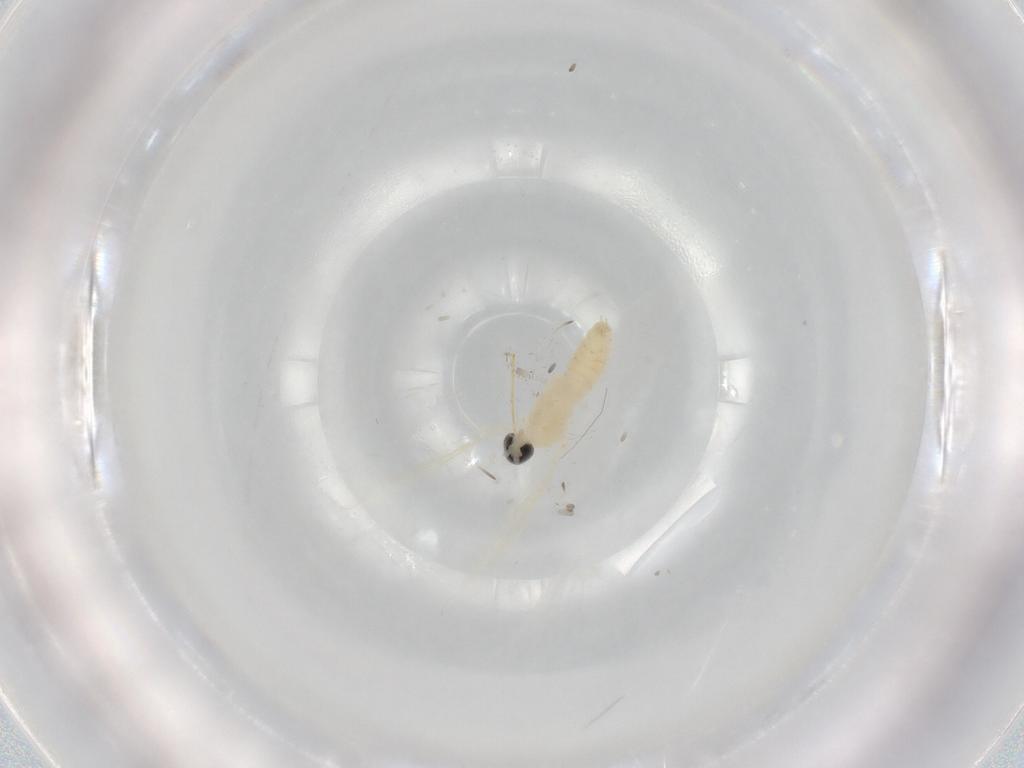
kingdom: Animalia
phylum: Arthropoda
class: Insecta
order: Diptera
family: Cecidomyiidae
